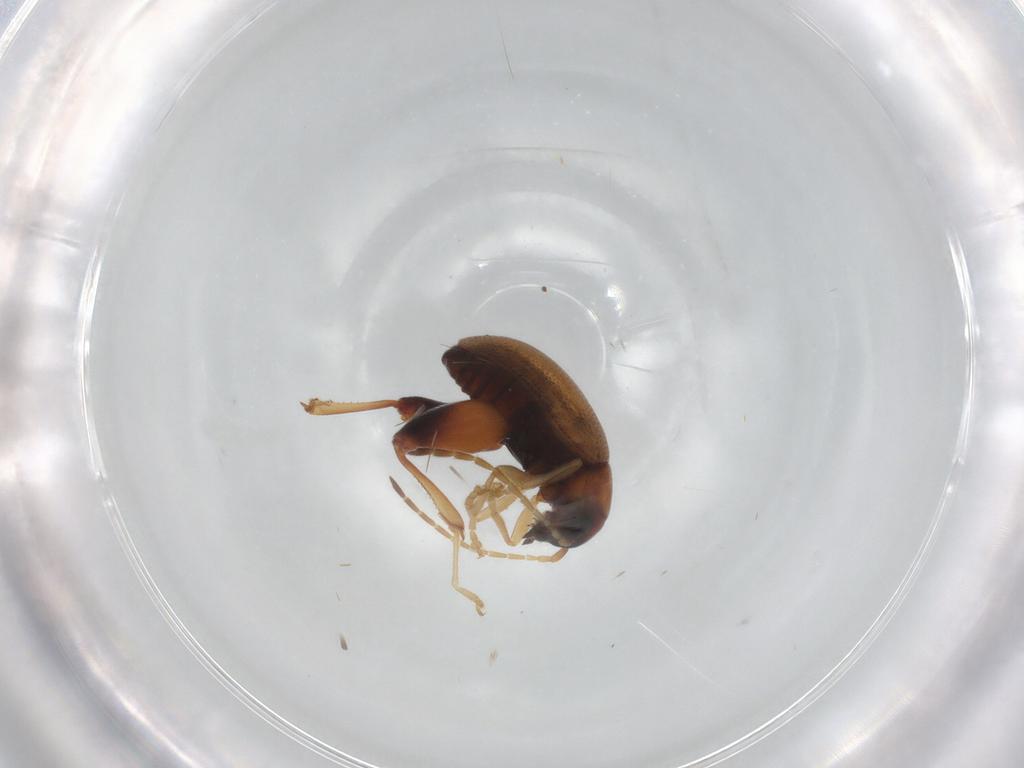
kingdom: Animalia
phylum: Arthropoda
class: Insecta
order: Coleoptera
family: Chrysomelidae
